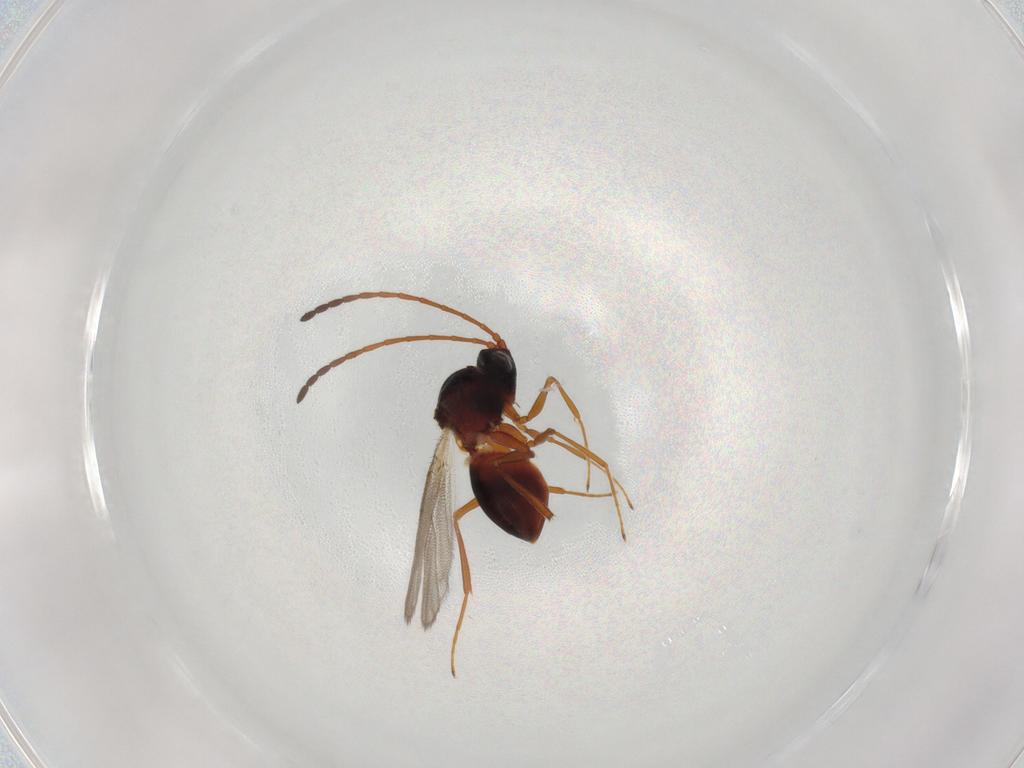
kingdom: Animalia
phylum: Arthropoda
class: Insecta
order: Hymenoptera
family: Figitidae
